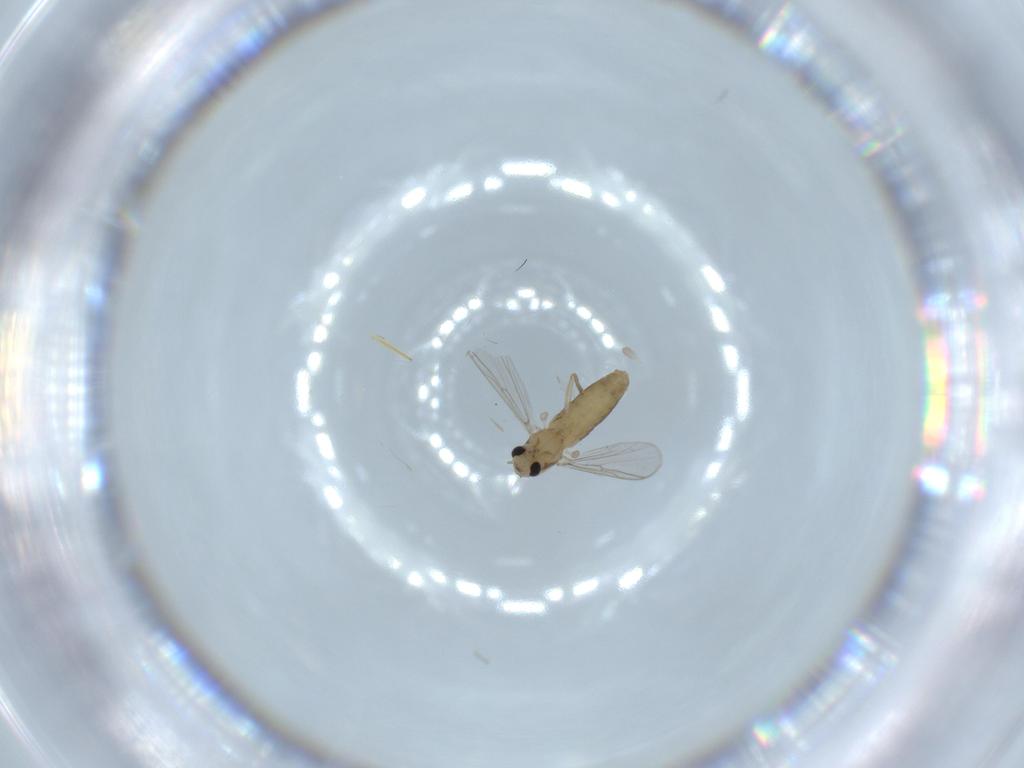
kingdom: Animalia
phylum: Arthropoda
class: Insecta
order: Diptera
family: Chironomidae
